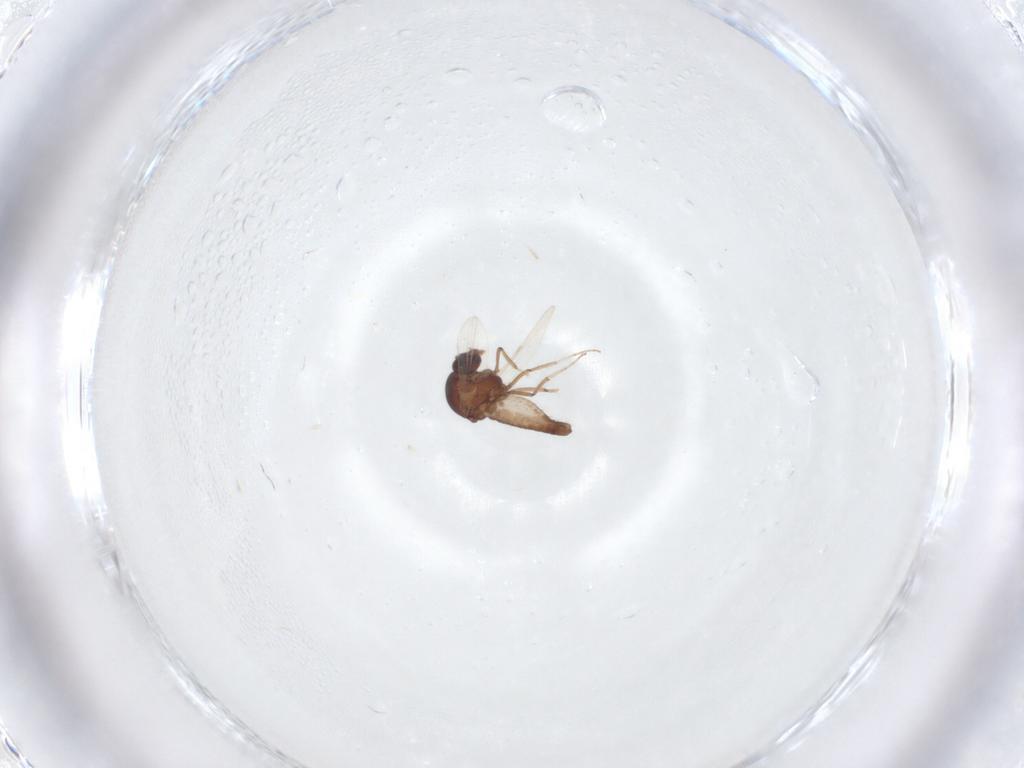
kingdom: Animalia
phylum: Arthropoda
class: Insecta
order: Diptera
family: Ceratopogonidae
